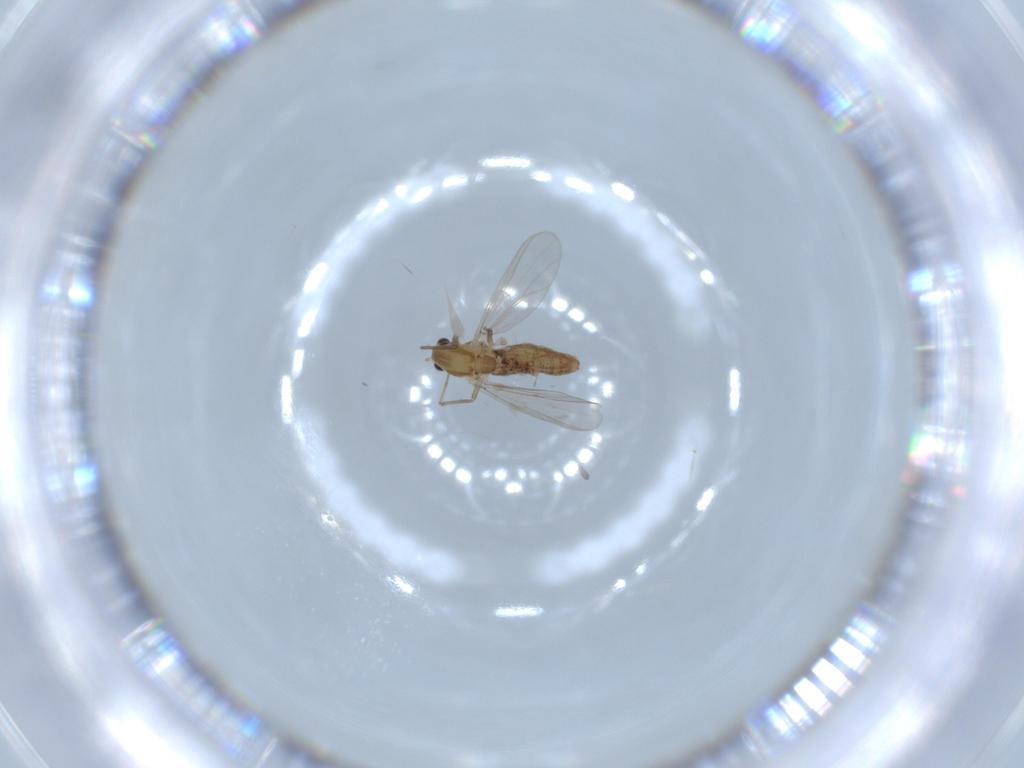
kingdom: Animalia
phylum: Arthropoda
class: Insecta
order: Diptera
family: Chironomidae
